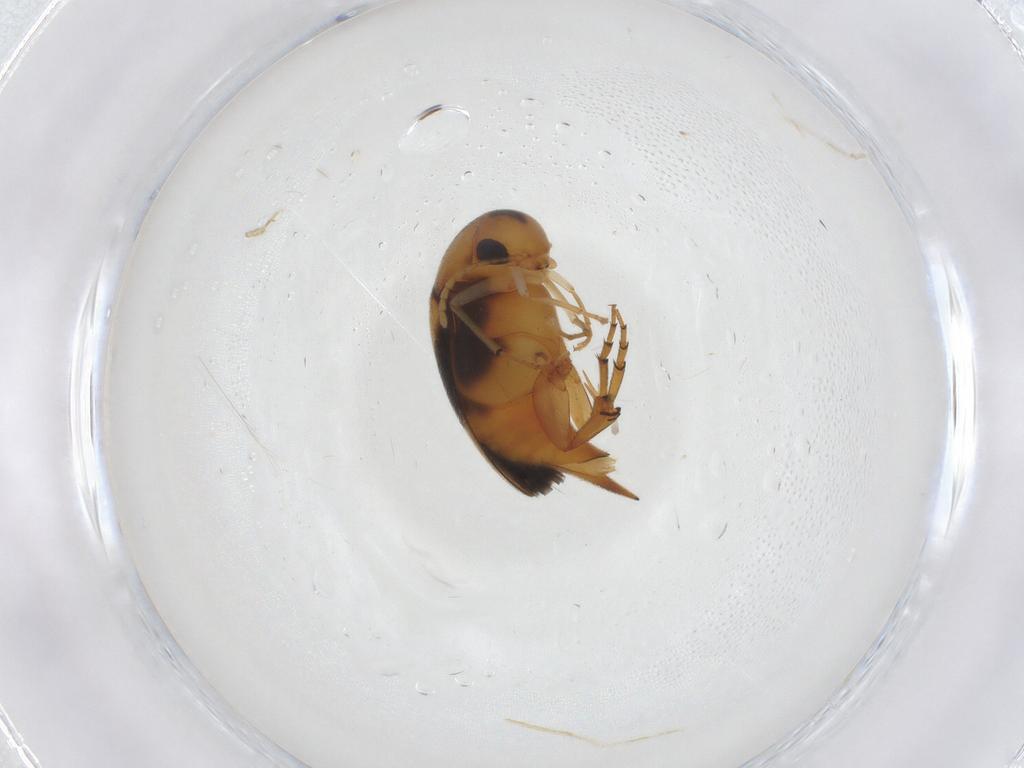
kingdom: Animalia
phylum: Arthropoda
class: Insecta
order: Coleoptera
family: Mordellidae
